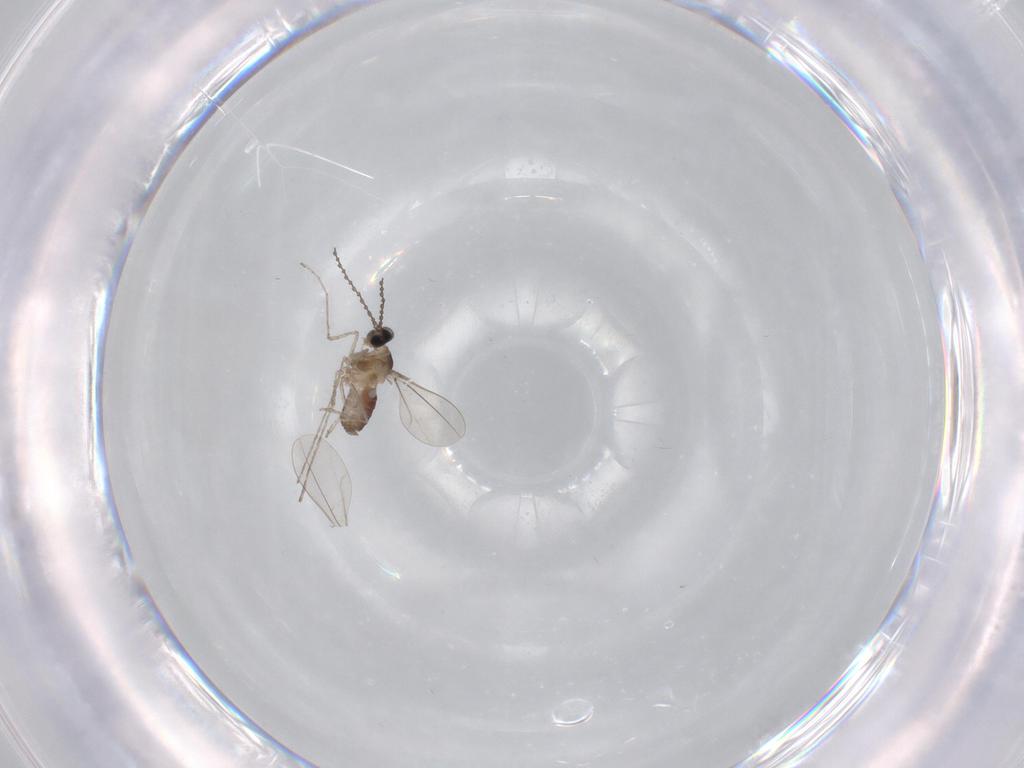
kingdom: Animalia
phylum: Arthropoda
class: Insecta
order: Diptera
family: Cecidomyiidae
